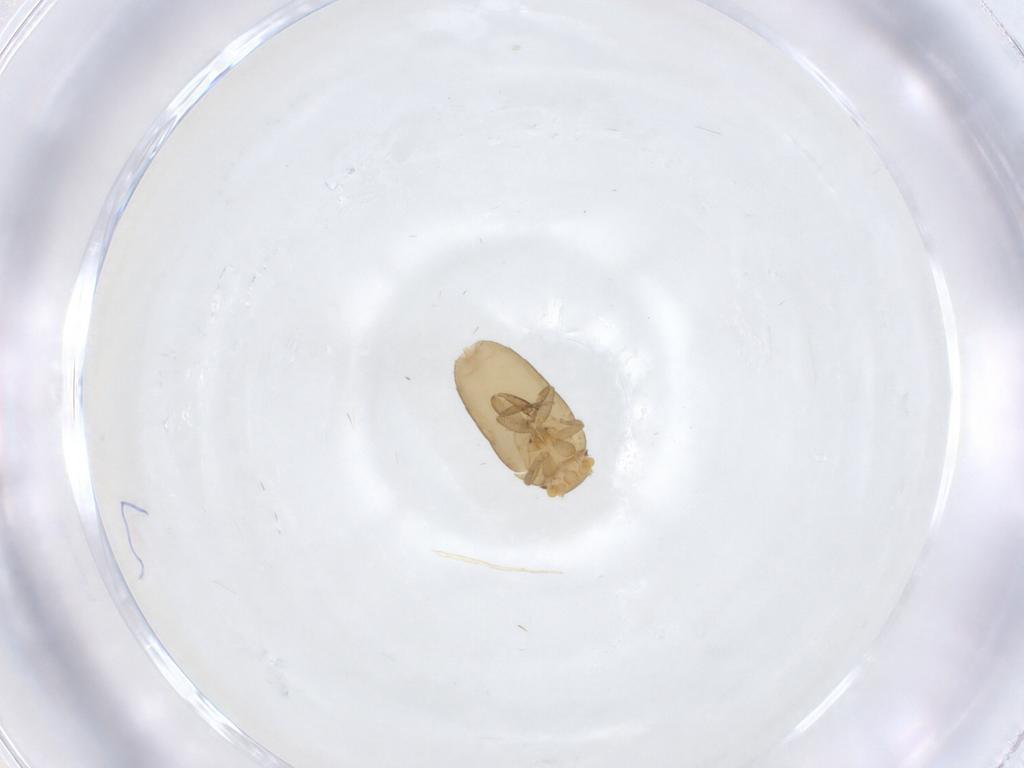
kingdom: Animalia
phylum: Arthropoda
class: Insecta
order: Diptera
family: Phoridae
